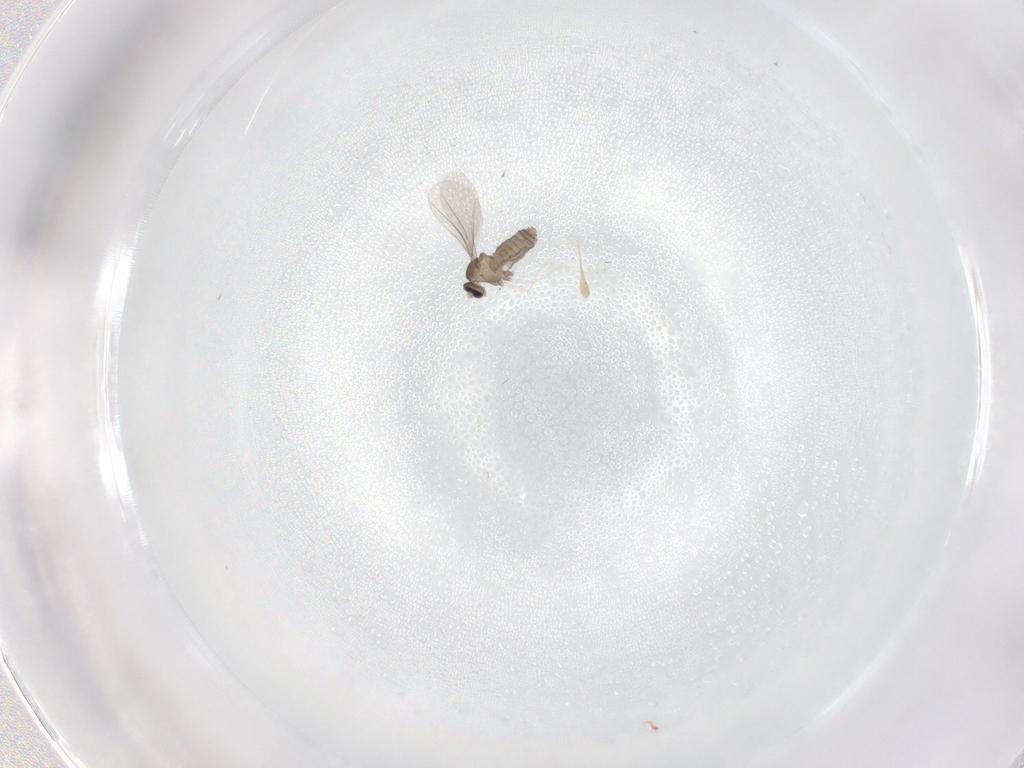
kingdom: Animalia
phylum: Arthropoda
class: Insecta
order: Diptera
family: Cecidomyiidae
